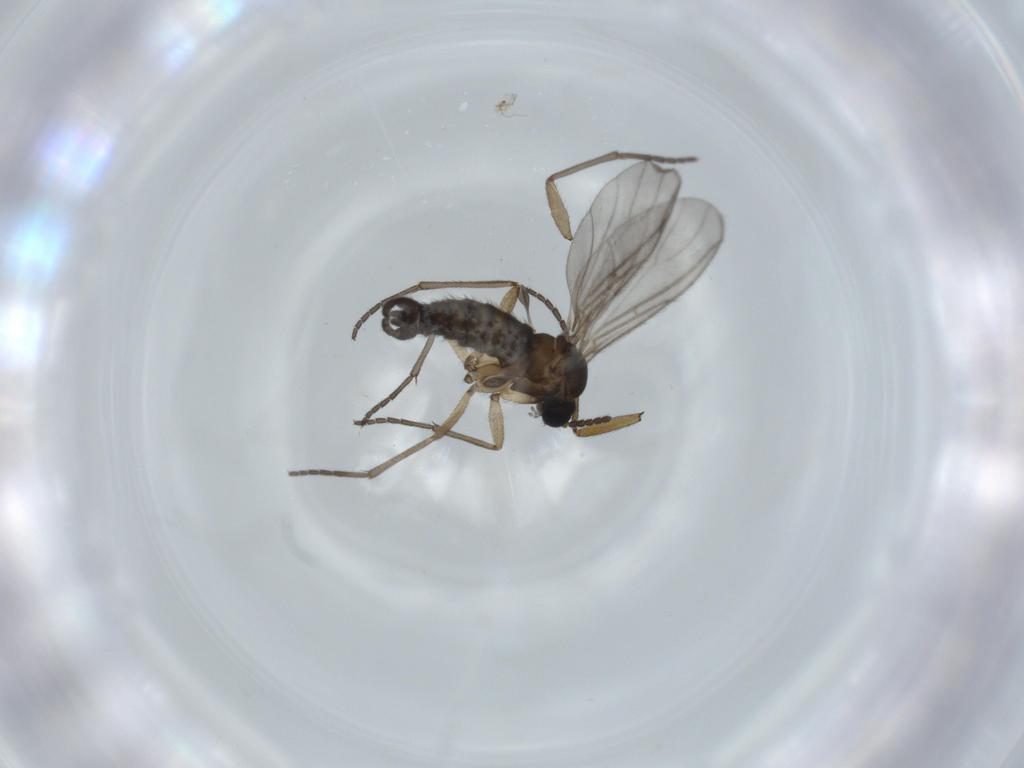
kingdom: Animalia
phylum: Arthropoda
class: Insecta
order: Diptera
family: Sciaridae
